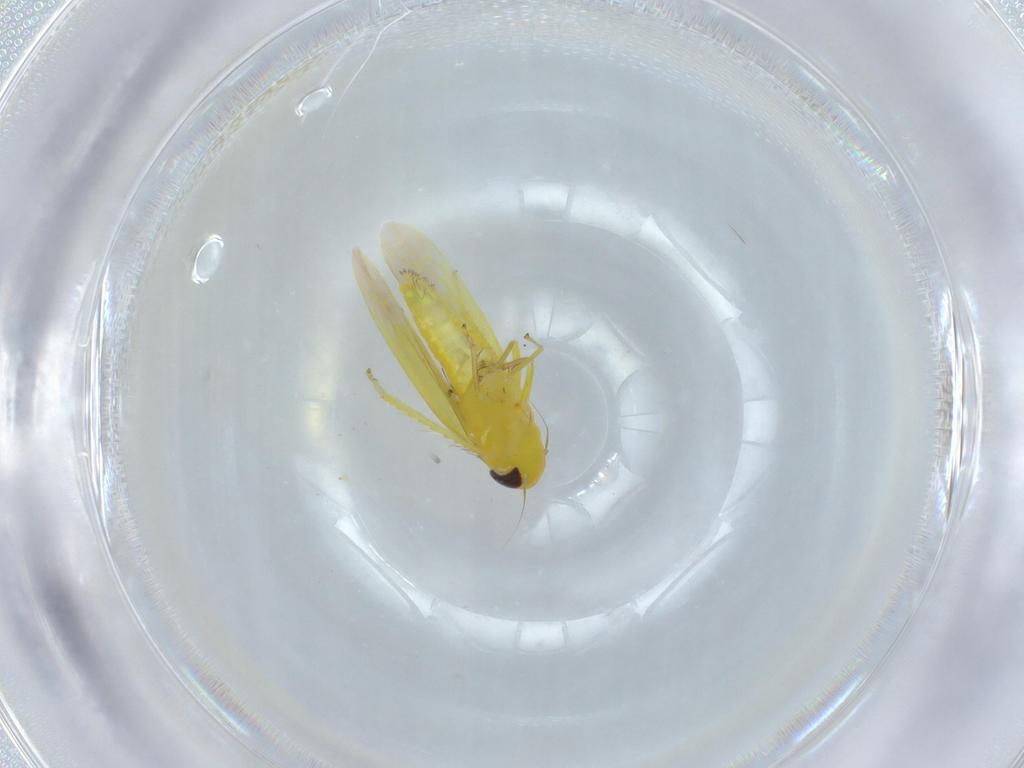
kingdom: Animalia
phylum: Arthropoda
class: Insecta
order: Hemiptera
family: Cicadellidae
